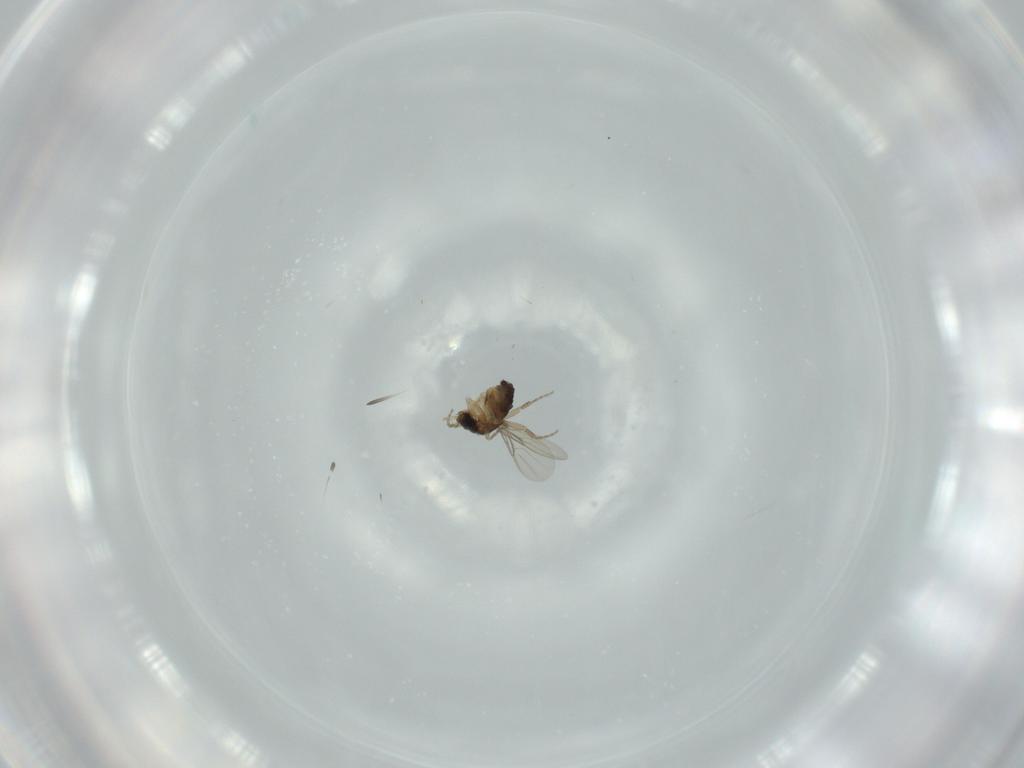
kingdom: Animalia
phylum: Arthropoda
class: Insecta
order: Diptera
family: Phoridae
